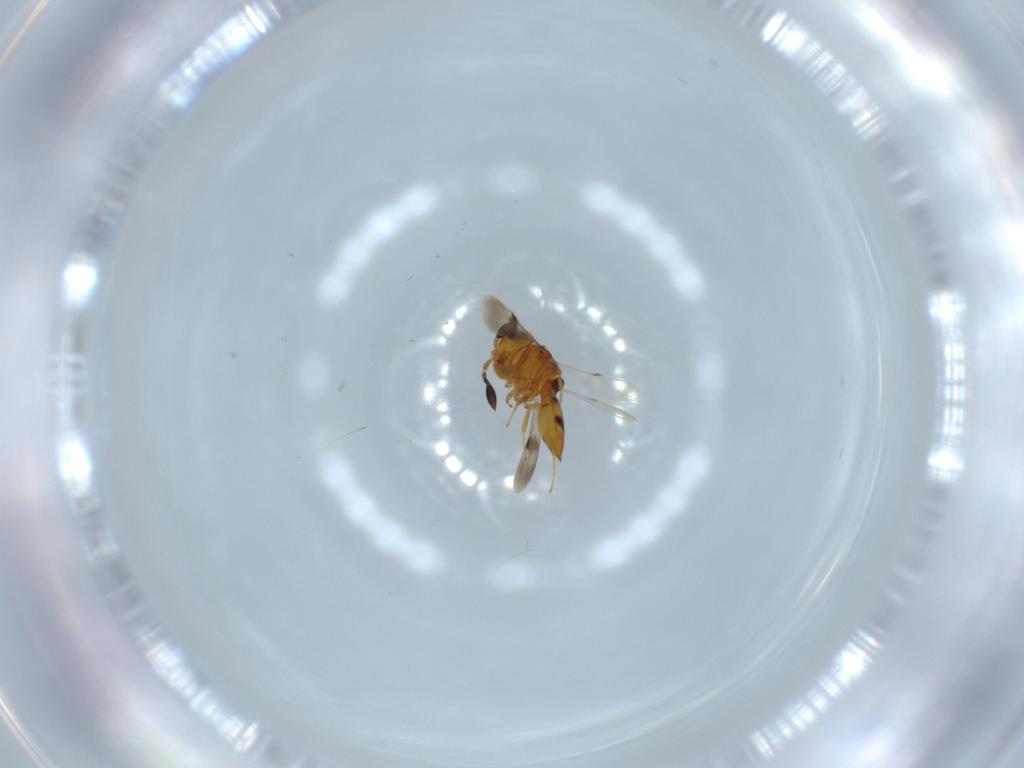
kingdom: Animalia
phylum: Arthropoda
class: Insecta
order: Hymenoptera
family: Scelionidae
